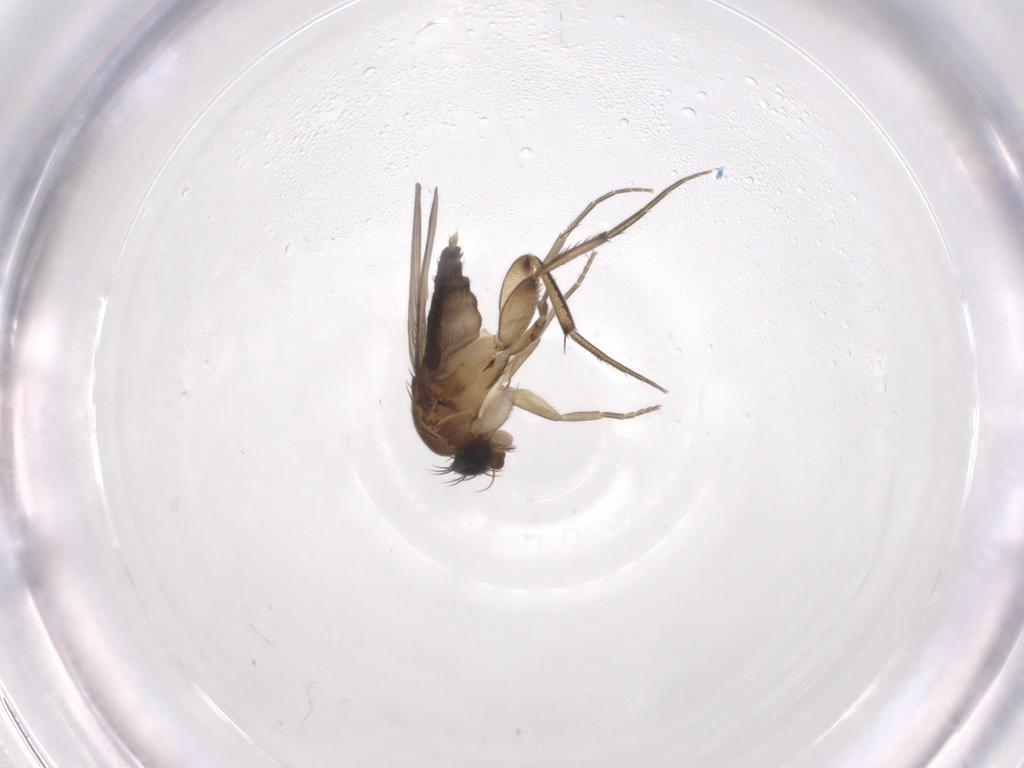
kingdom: Animalia
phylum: Arthropoda
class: Insecta
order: Diptera
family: Phoridae
